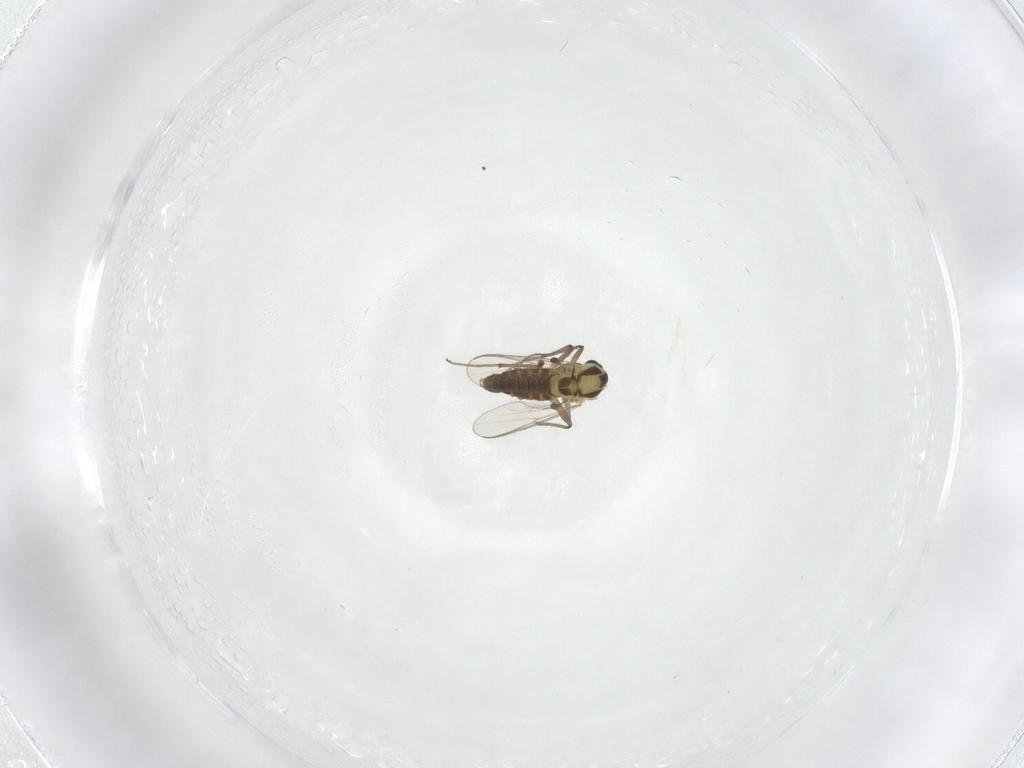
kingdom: Animalia
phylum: Arthropoda
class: Insecta
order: Diptera
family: Chironomidae
